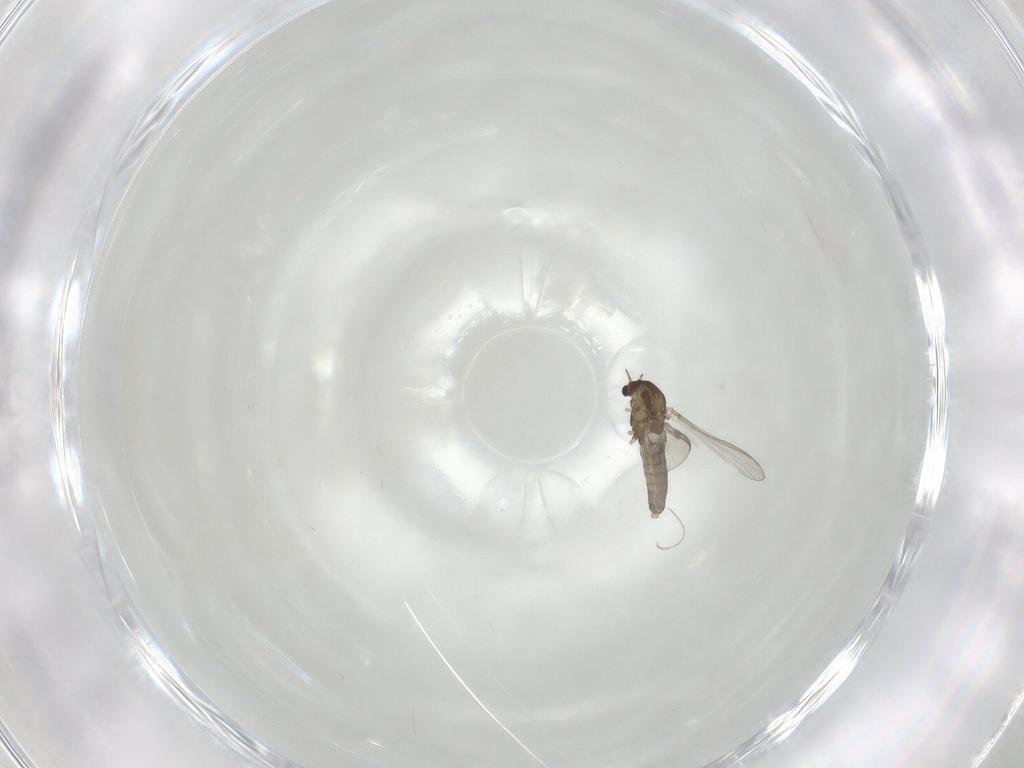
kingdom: Animalia
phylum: Arthropoda
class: Insecta
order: Diptera
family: Chironomidae
